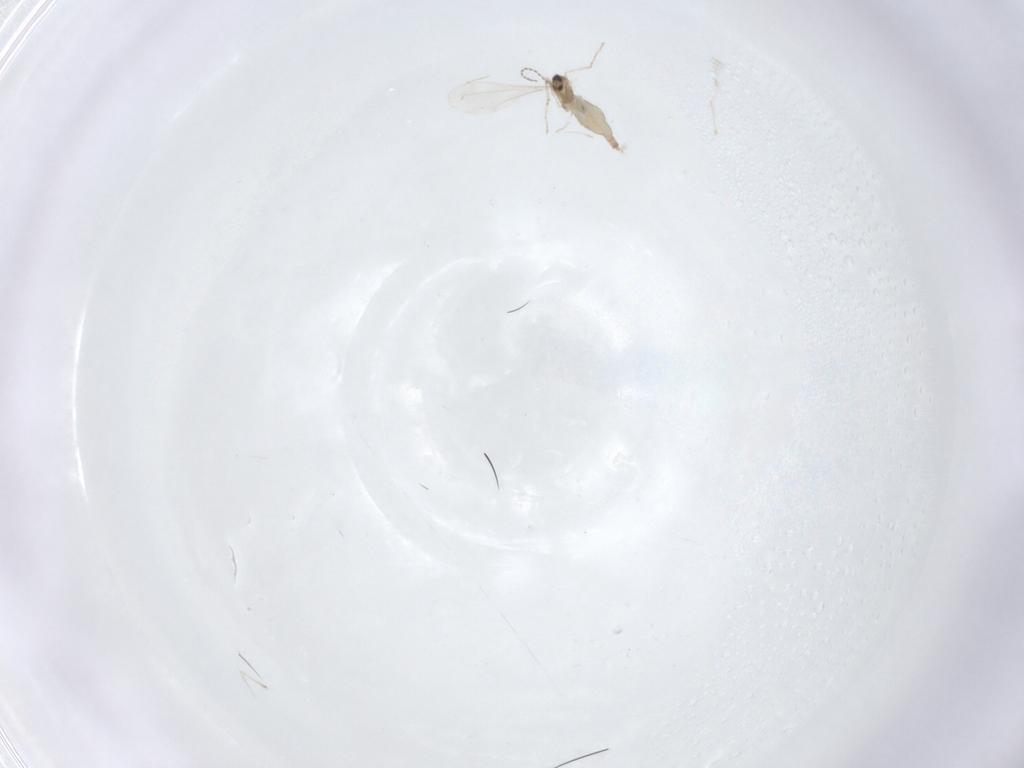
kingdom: Animalia
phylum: Arthropoda
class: Insecta
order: Diptera
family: Cecidomyiidae
